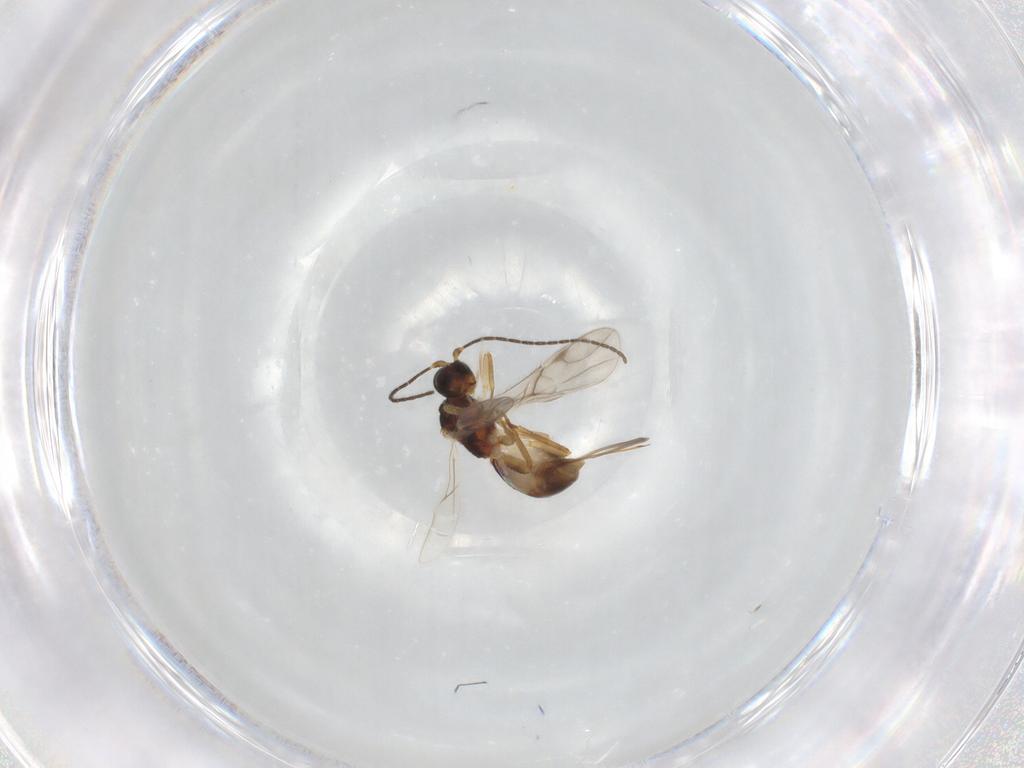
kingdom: Animalia
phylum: Arthropoda
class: Insecta
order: Hymenoptera
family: Braconidae
